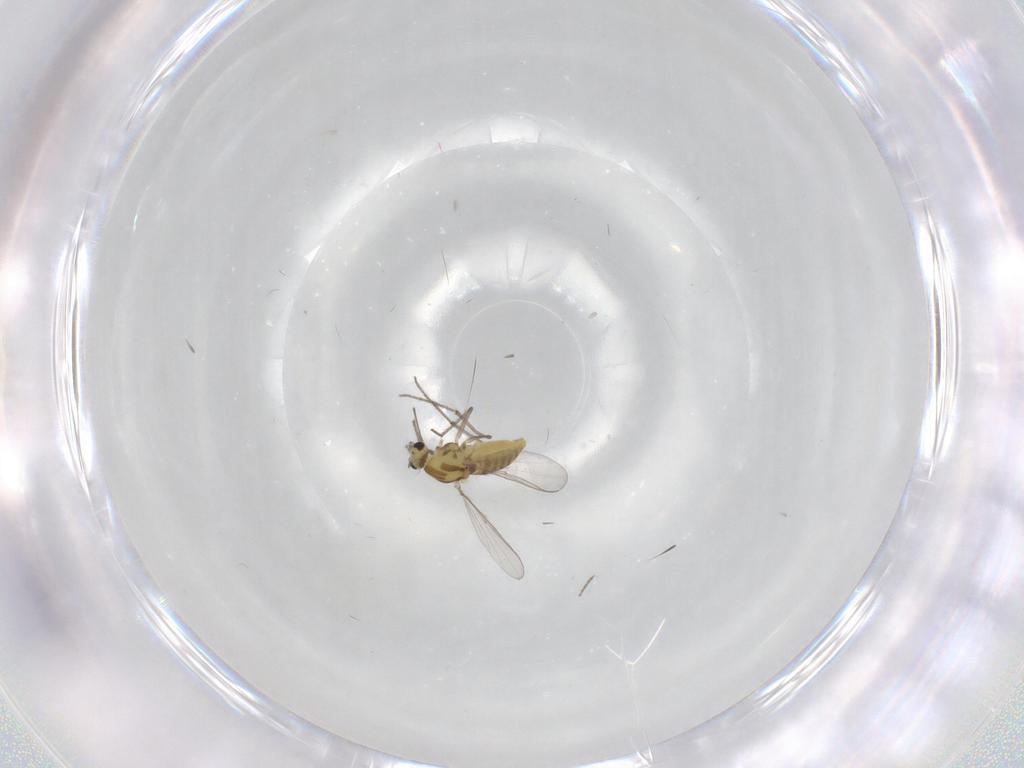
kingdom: Animalia
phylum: Arthropoda
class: Insecta
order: Diptera
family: Chironomidae
